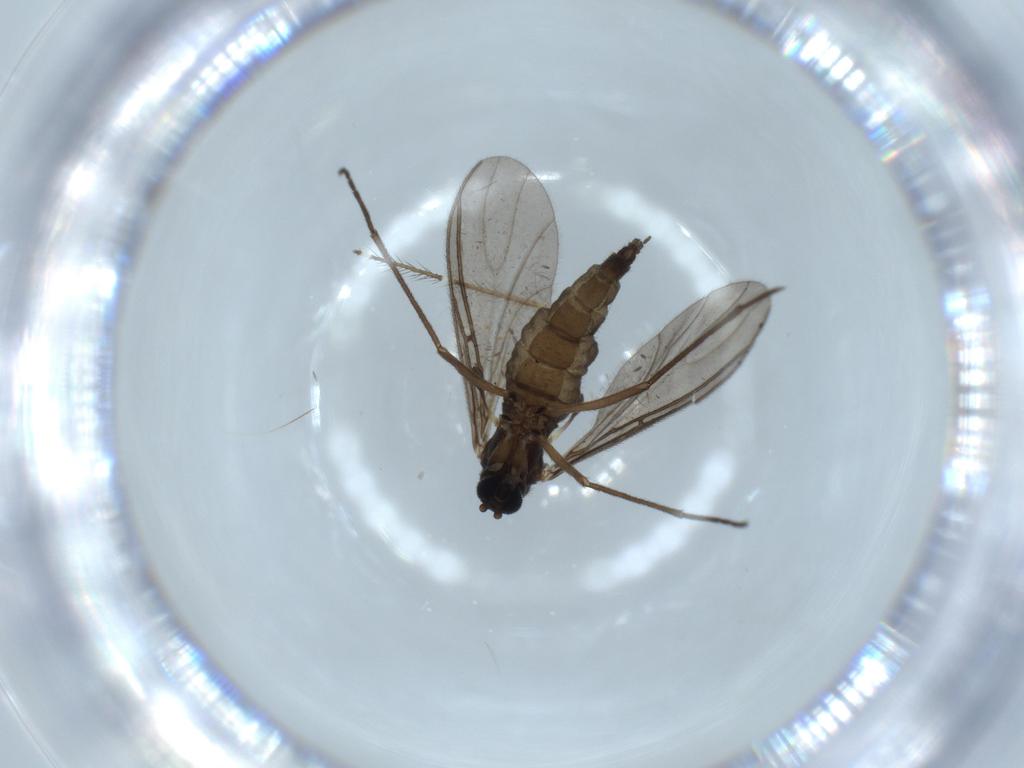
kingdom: Animalia
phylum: Arthropoda
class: Insecta
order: Diptera
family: Sciaridae
